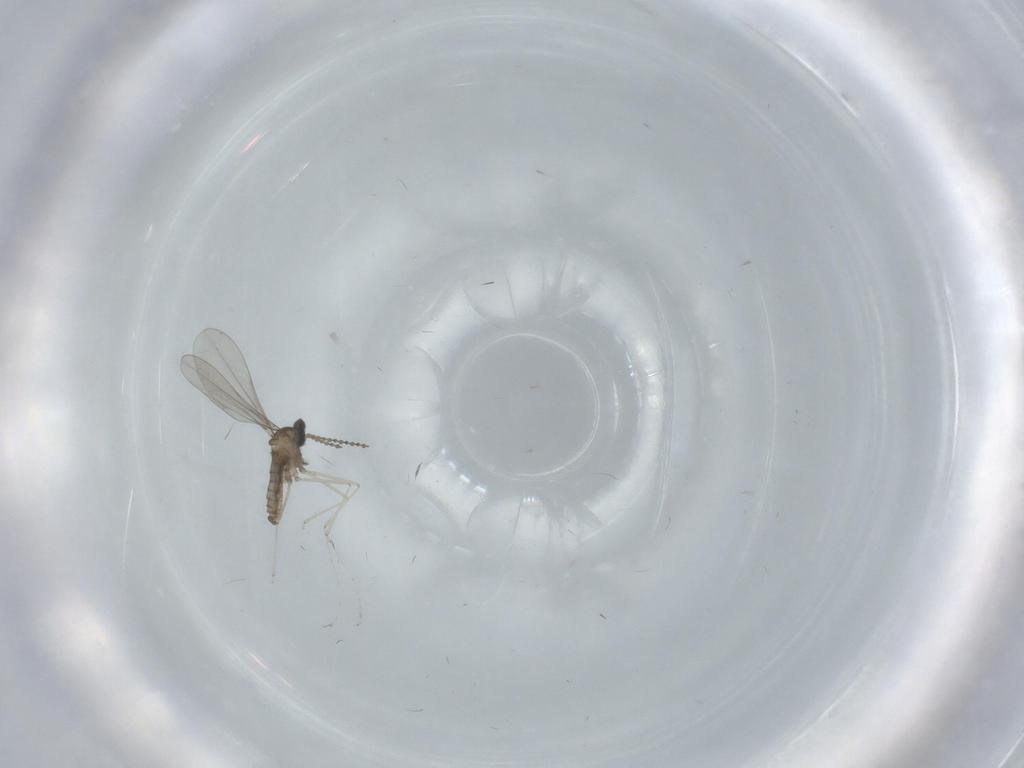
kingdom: Animalia
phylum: Arthropoda
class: Insecta
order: Diptera
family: Cecidomyiidae
